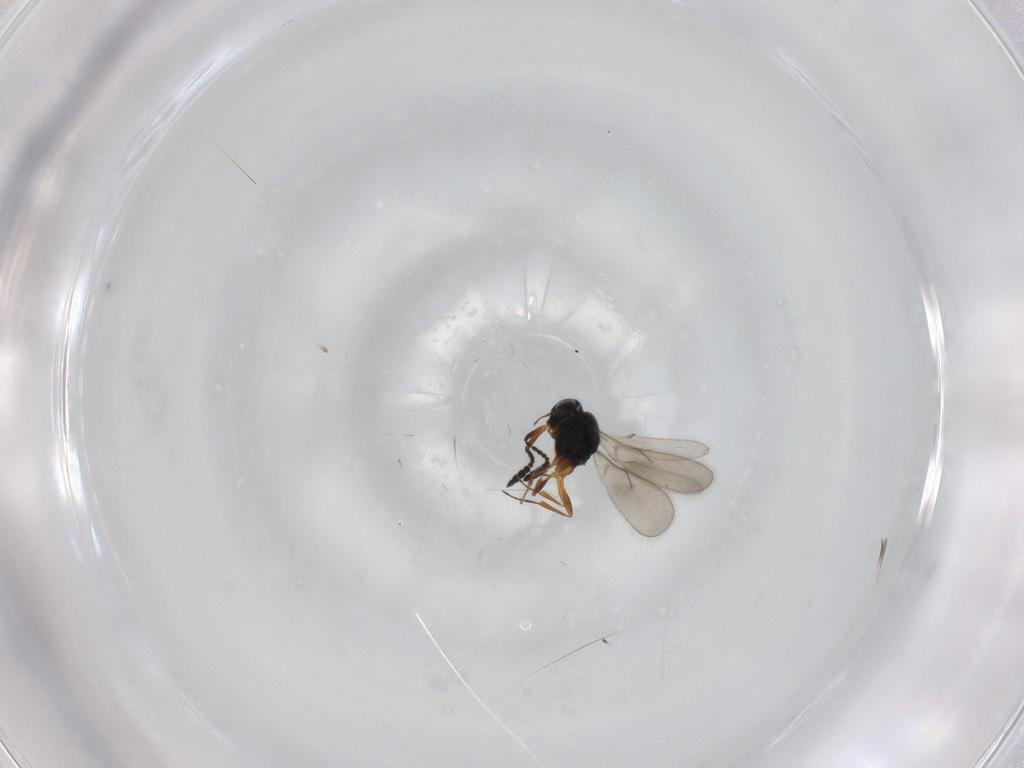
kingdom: Animalia
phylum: Arthropoda
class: Insecta
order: Hymenoptera
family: Scelionidae
